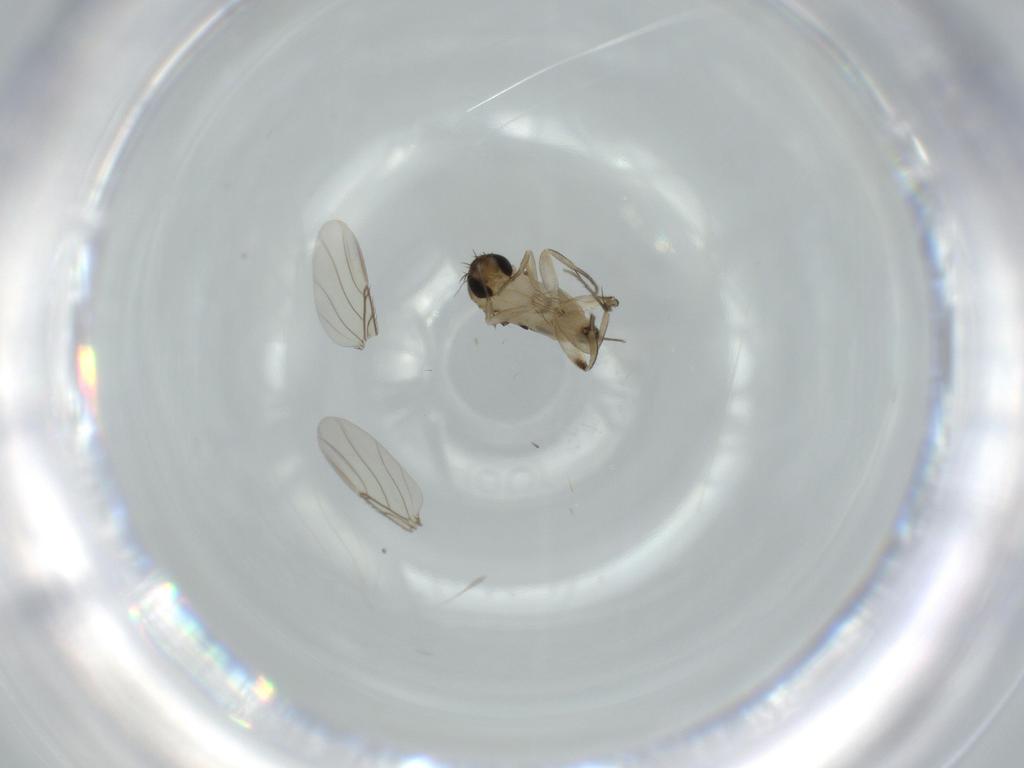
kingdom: Animalia
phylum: Arthropoda
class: Insecta
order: Diptera
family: Phoridae
